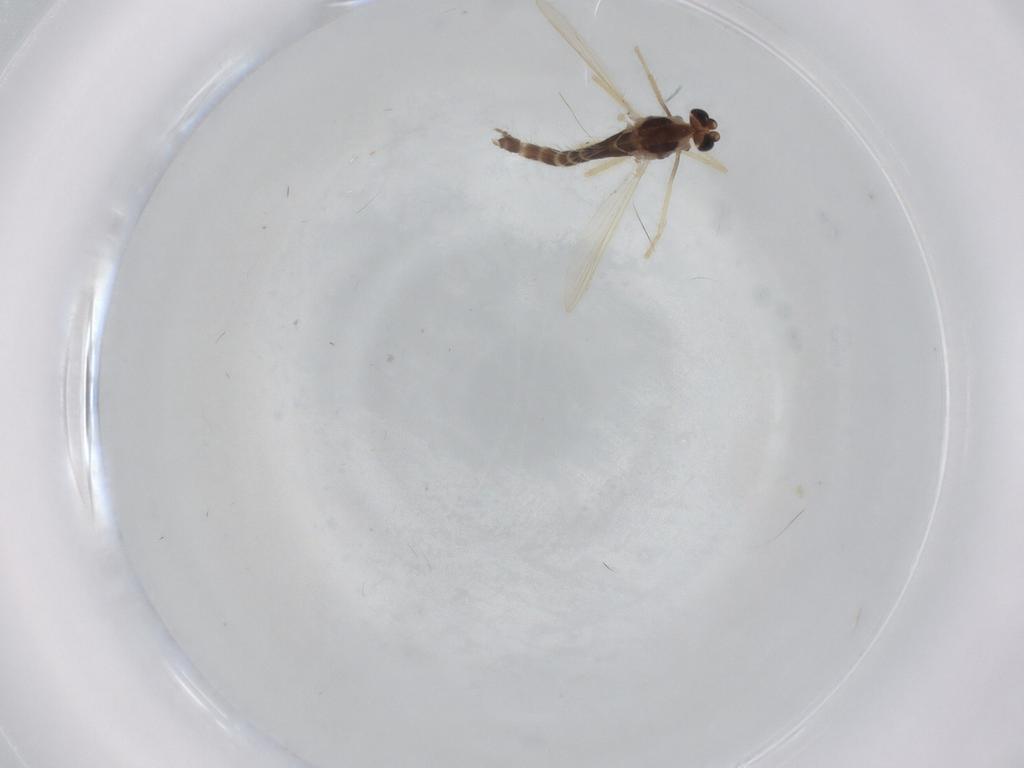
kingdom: Animalia
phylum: Arthropoda
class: Insecta
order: Diptera
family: Chironomidae
